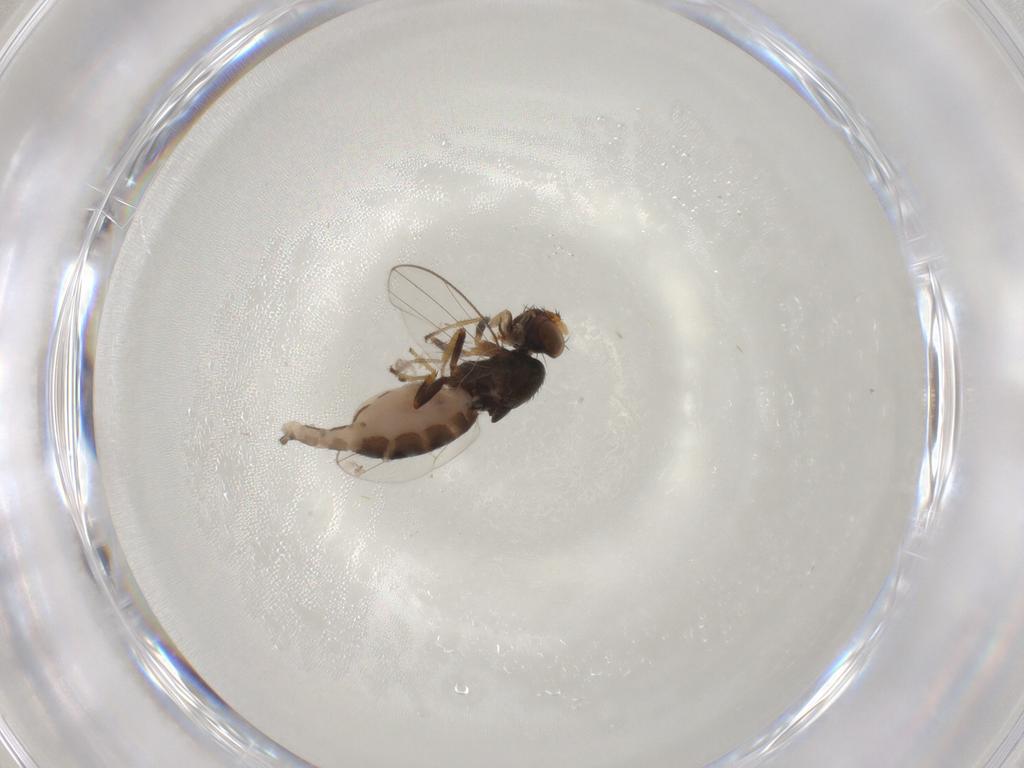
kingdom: Animalia
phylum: Arthropoda
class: Insecta
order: Diptera
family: Ephydridae
